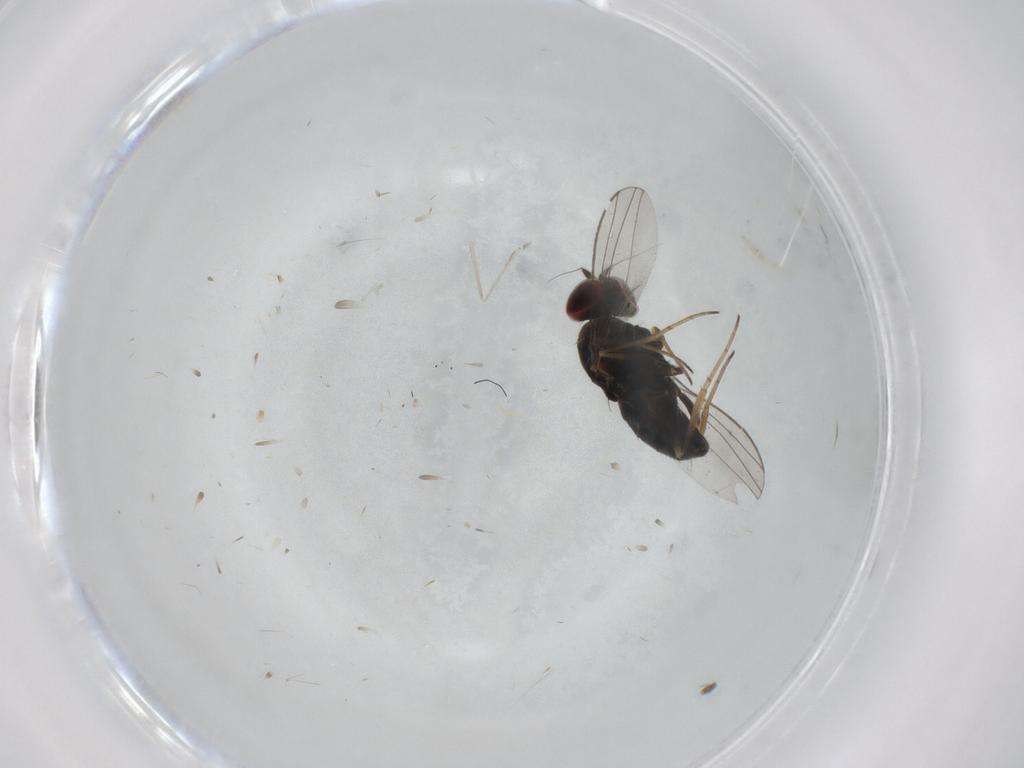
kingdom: Animalia
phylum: Arthropoda
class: Insecta
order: Diptera
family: Dolichopodidae
